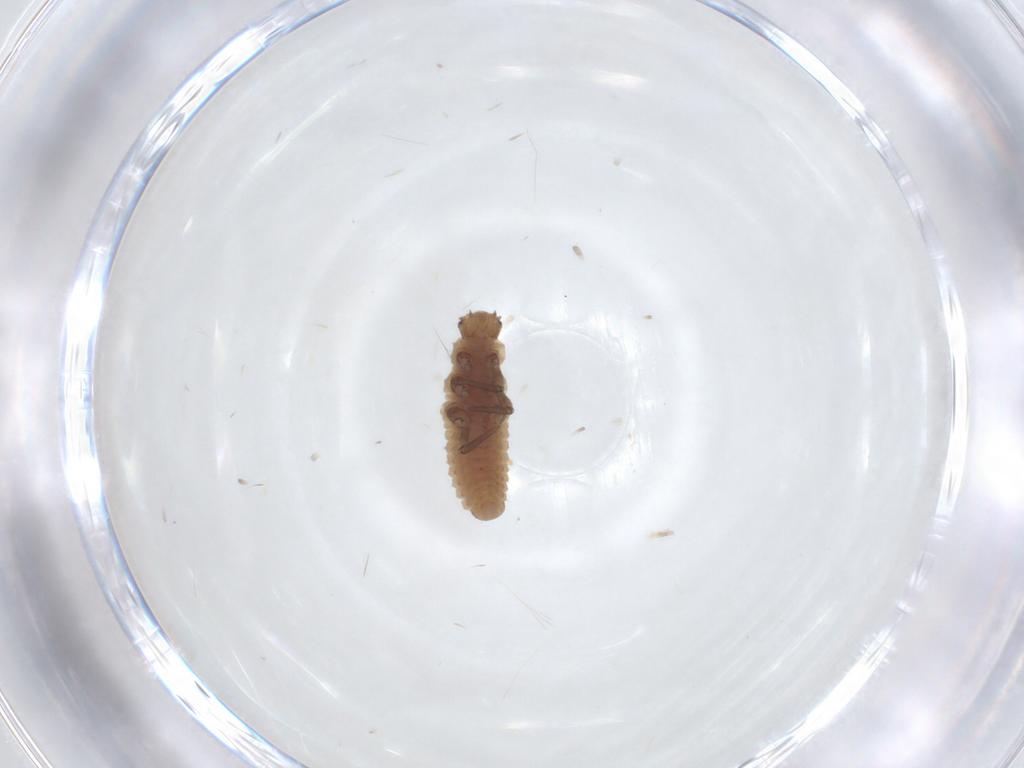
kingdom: Animalia
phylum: Arthropoda
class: Insecta
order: Coleoptera
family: Coccinellidae
